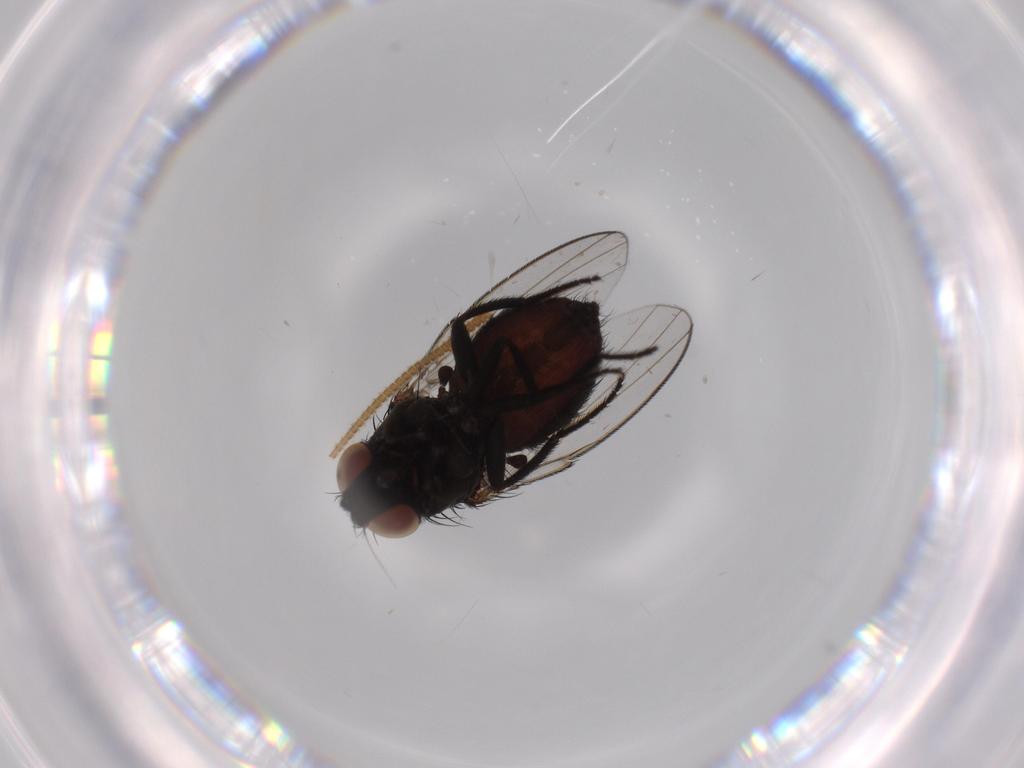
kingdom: Animalia
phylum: Arthropoda
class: Insecta
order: Diptera
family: Milichiidae
